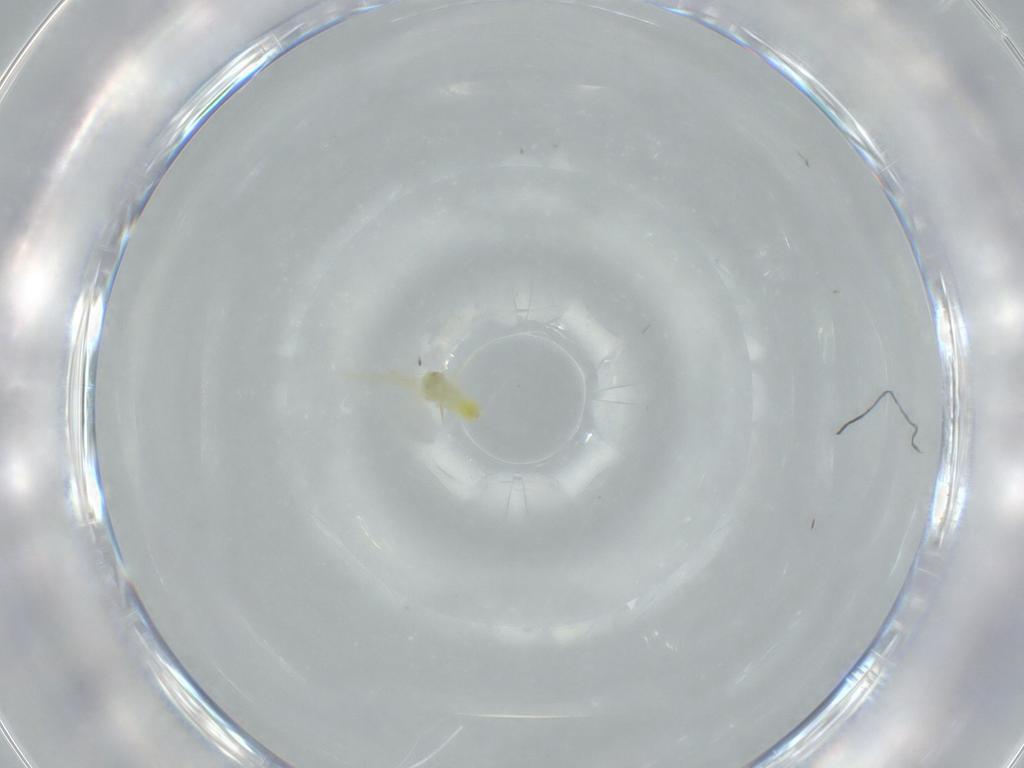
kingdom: Animalia
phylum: Arthropoda
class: Insecta
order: Hemiptera
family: Aleyrodidae
